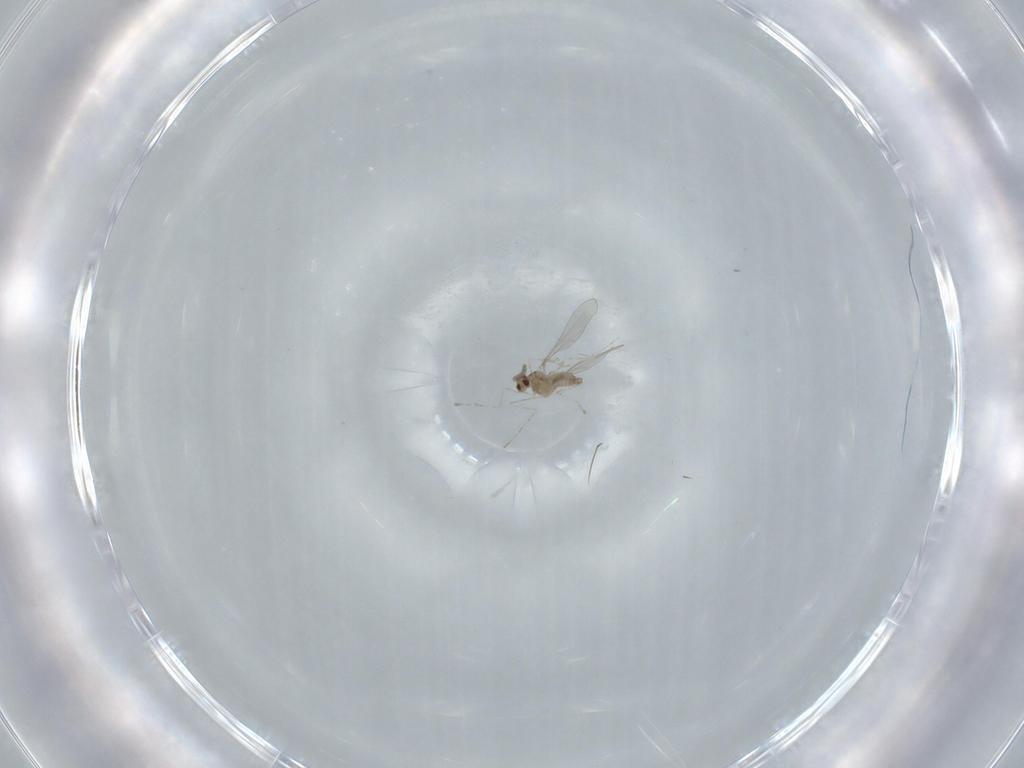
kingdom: Animalia
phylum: Arthropoda
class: Insecta
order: Diptera
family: Cecidomyiidae
